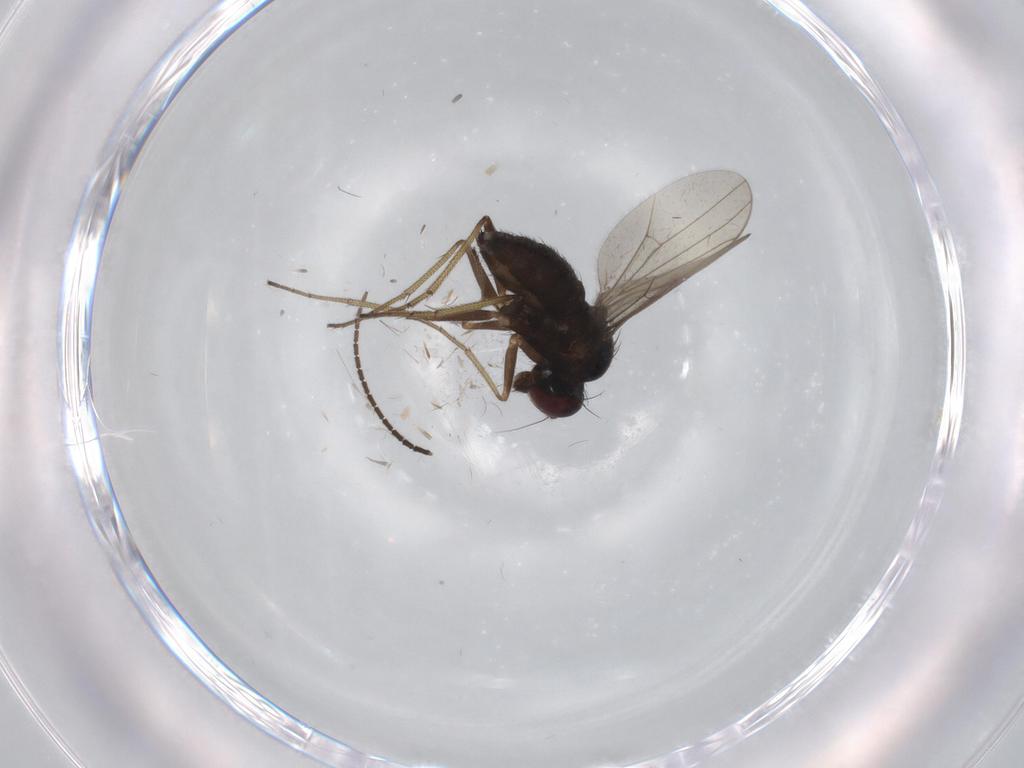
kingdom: Animalia
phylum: Arthropoda
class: Insecta
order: Diptera
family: Dolichopodidae
